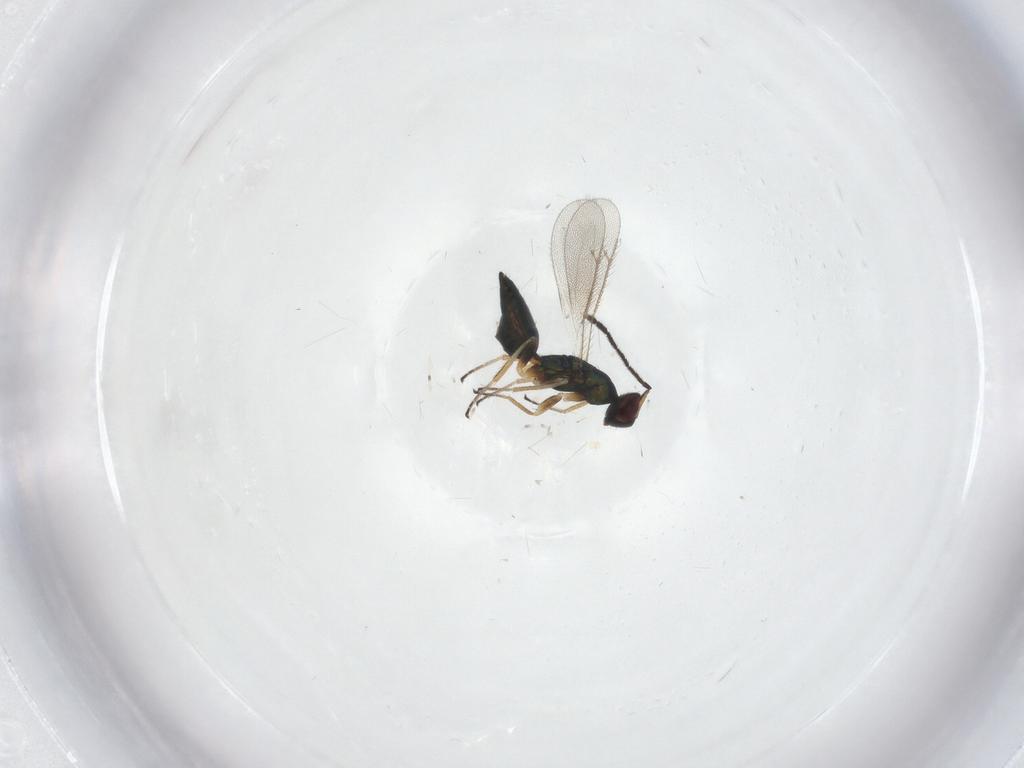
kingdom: Animalia
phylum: Arthropoda
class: Insecta
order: Hymenoptera
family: Eulophidae
